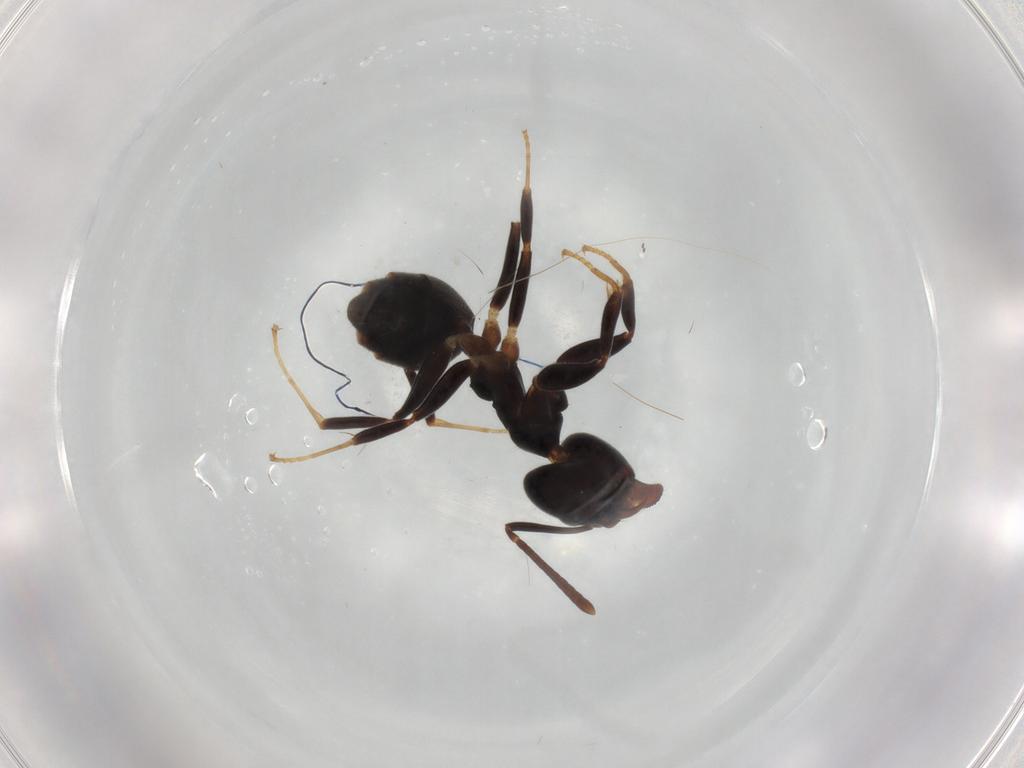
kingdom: Animalia
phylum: Arthropoda
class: Insecta
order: Hymenoptera
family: Formicidae
